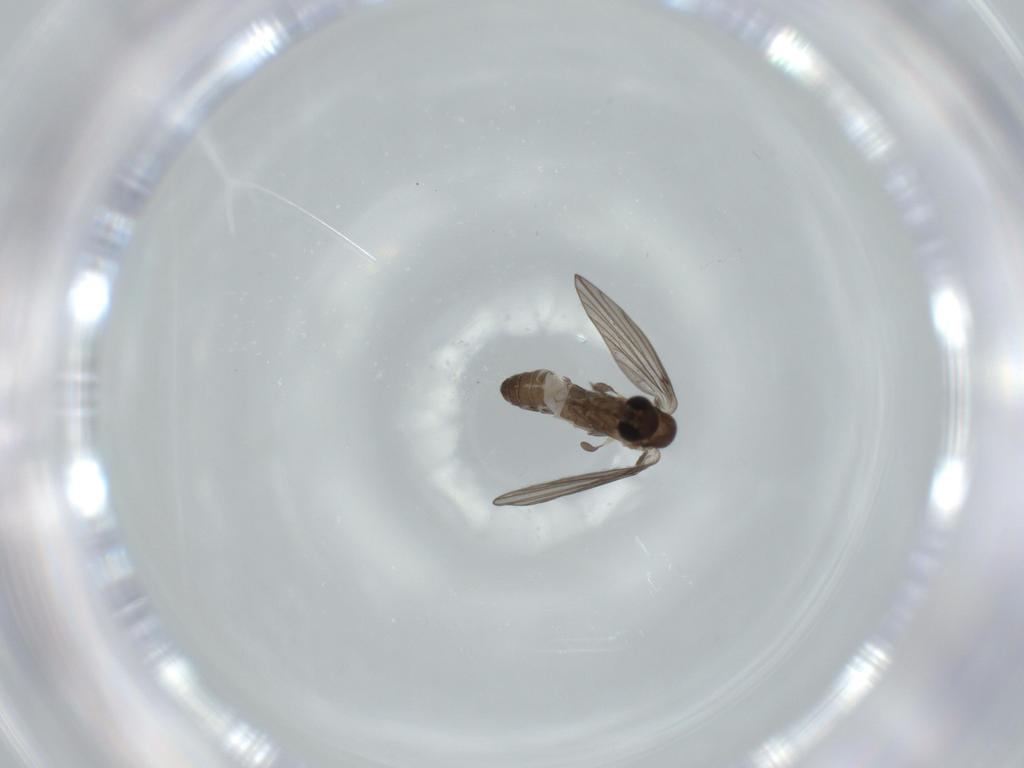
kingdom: Animalia
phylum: Arthropoda
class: Insecta
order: Diptera
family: Psychodidae
